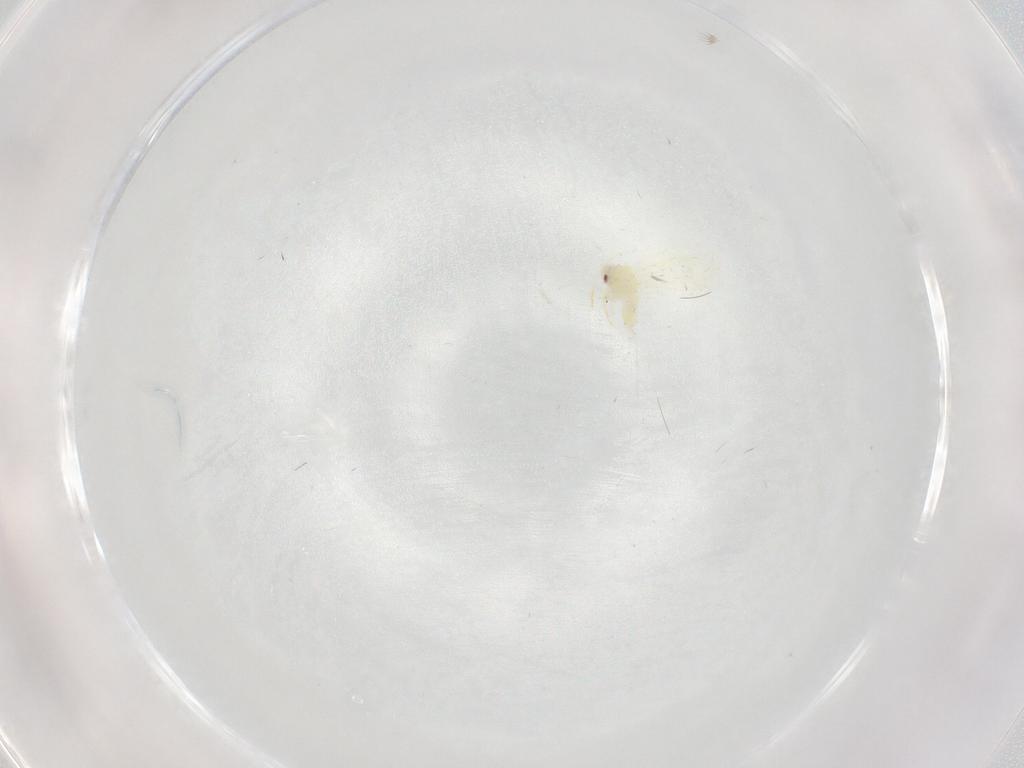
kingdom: Animalia
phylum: Arthropoda
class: Insecta
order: Hemiptera
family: Aleyrodidae
